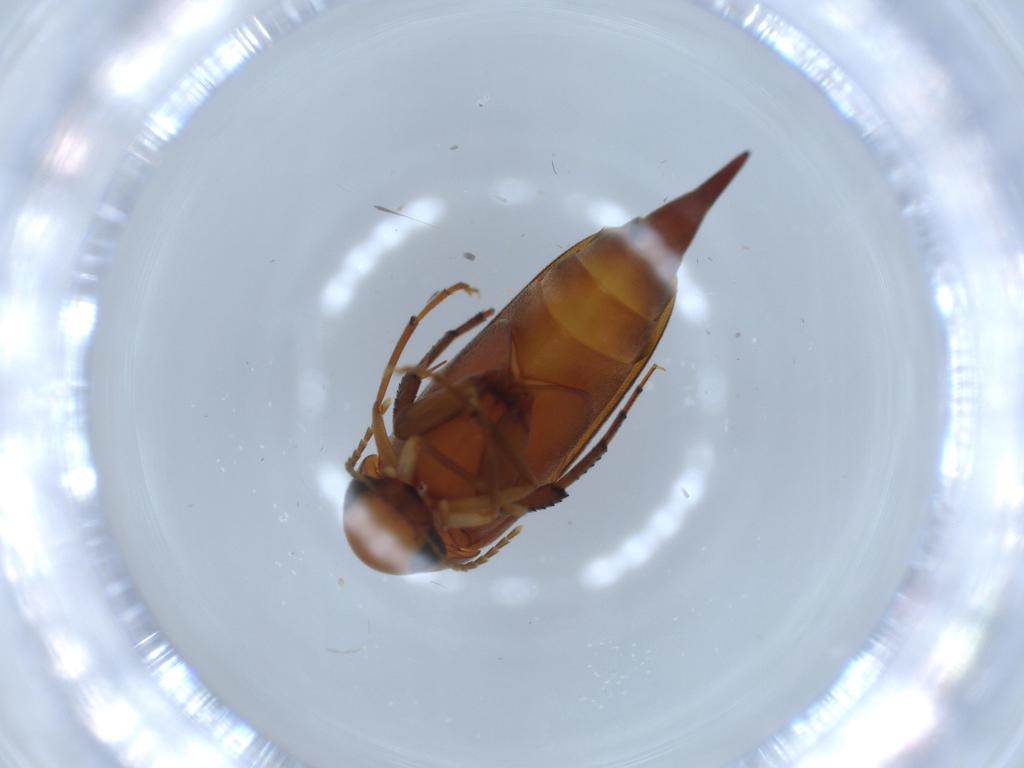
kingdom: Animalia
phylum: Arthropoda
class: Insecta
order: Coleoptera
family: Mordellidae
